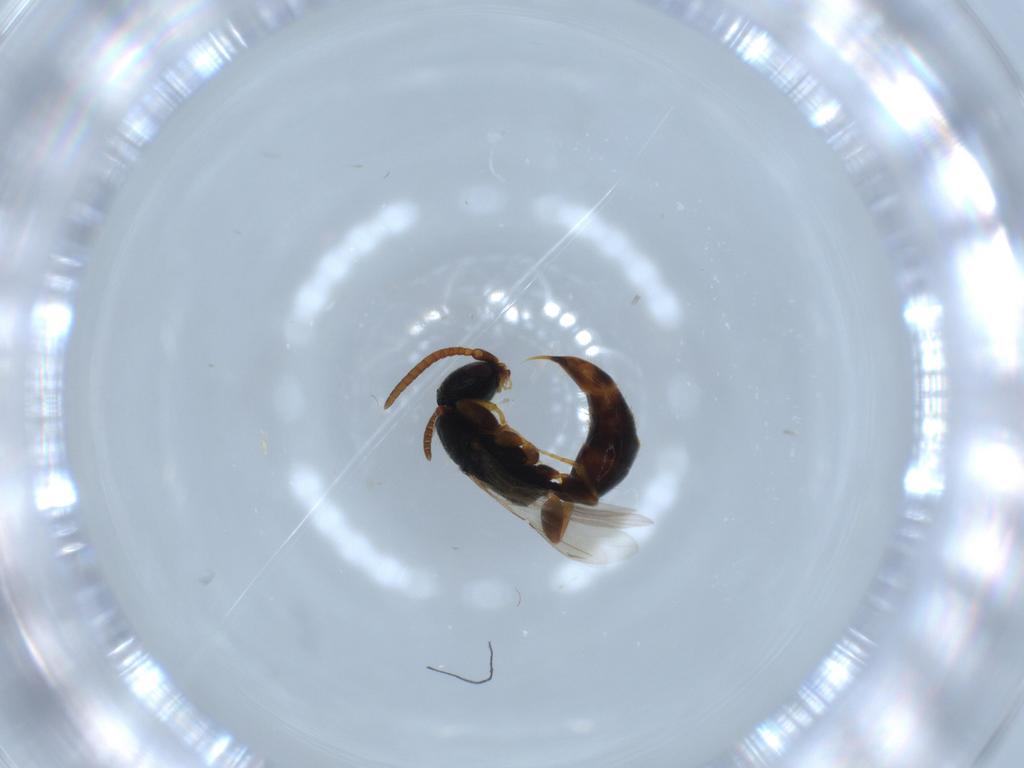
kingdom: Animalia
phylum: Arthropoda
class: Insecta
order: Hymenoptera
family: Bethylidae
